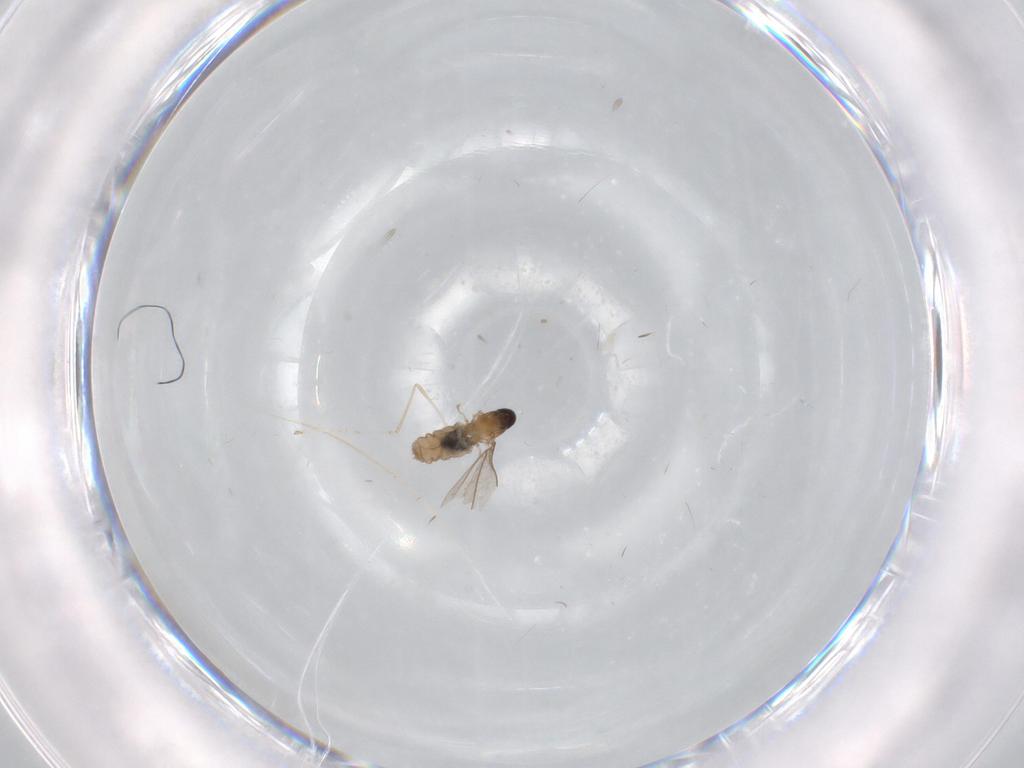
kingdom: Animalia
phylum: Arthropoda
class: Insecta
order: Diptera
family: Cecidomyiidae
